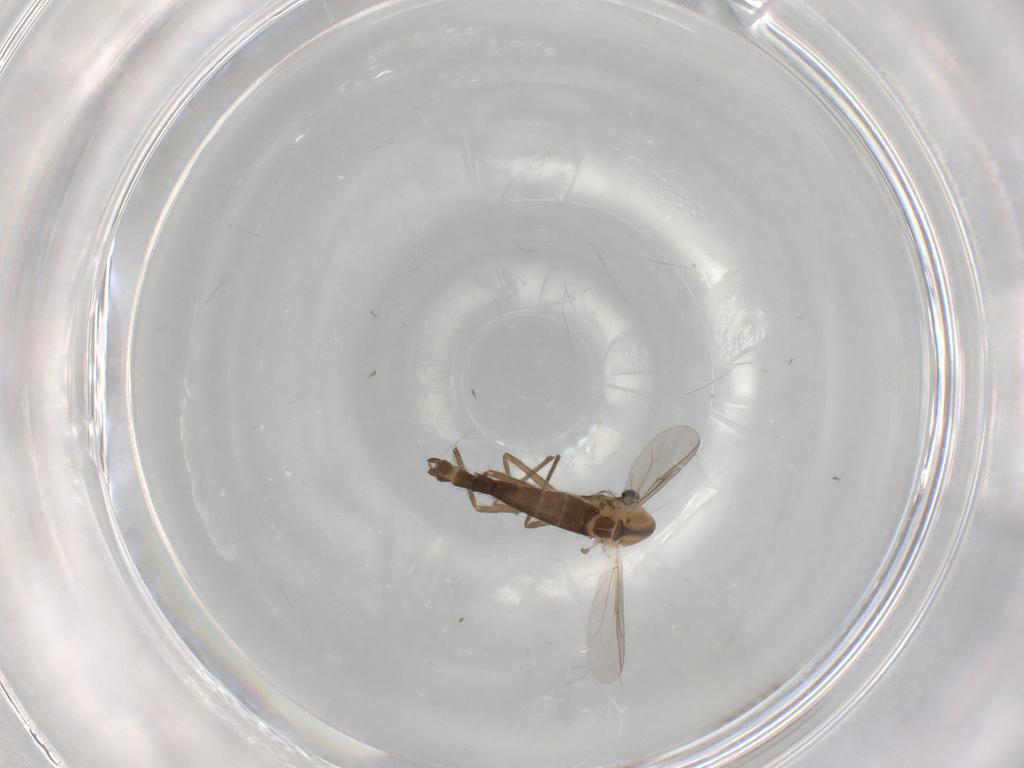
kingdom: Animalia
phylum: Arthropoda
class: Insecta
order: Diptera
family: Chironomidae
